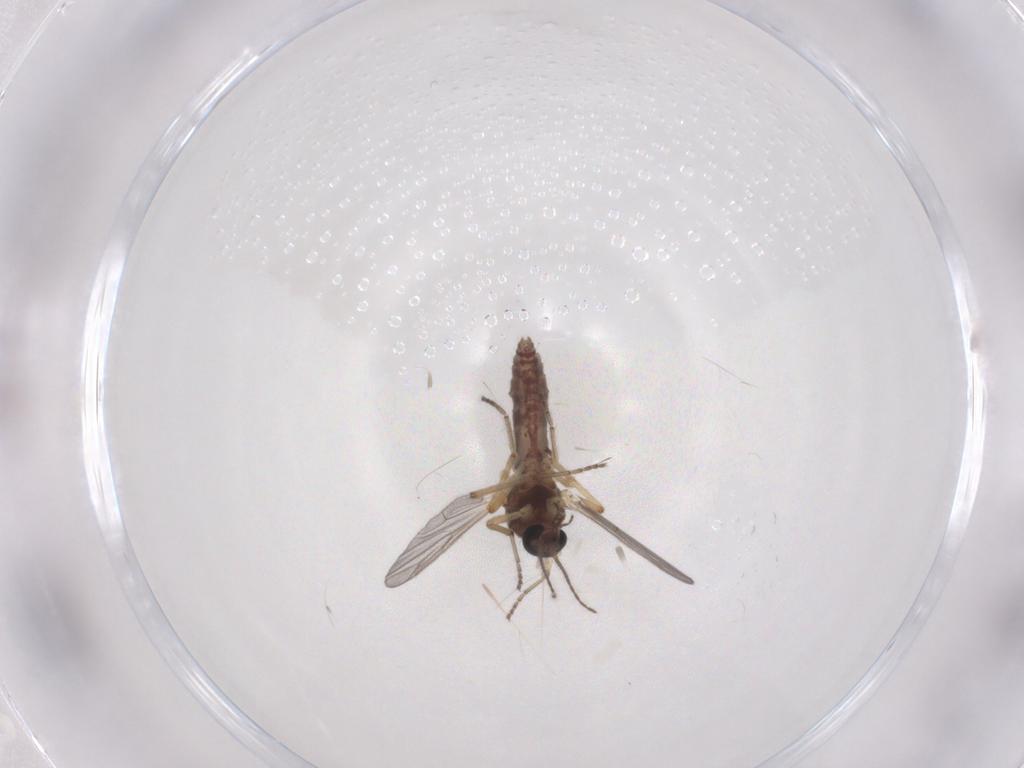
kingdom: Animalia
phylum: Arthropoda
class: Insecta
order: Diptera
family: Ceratopogonidae
